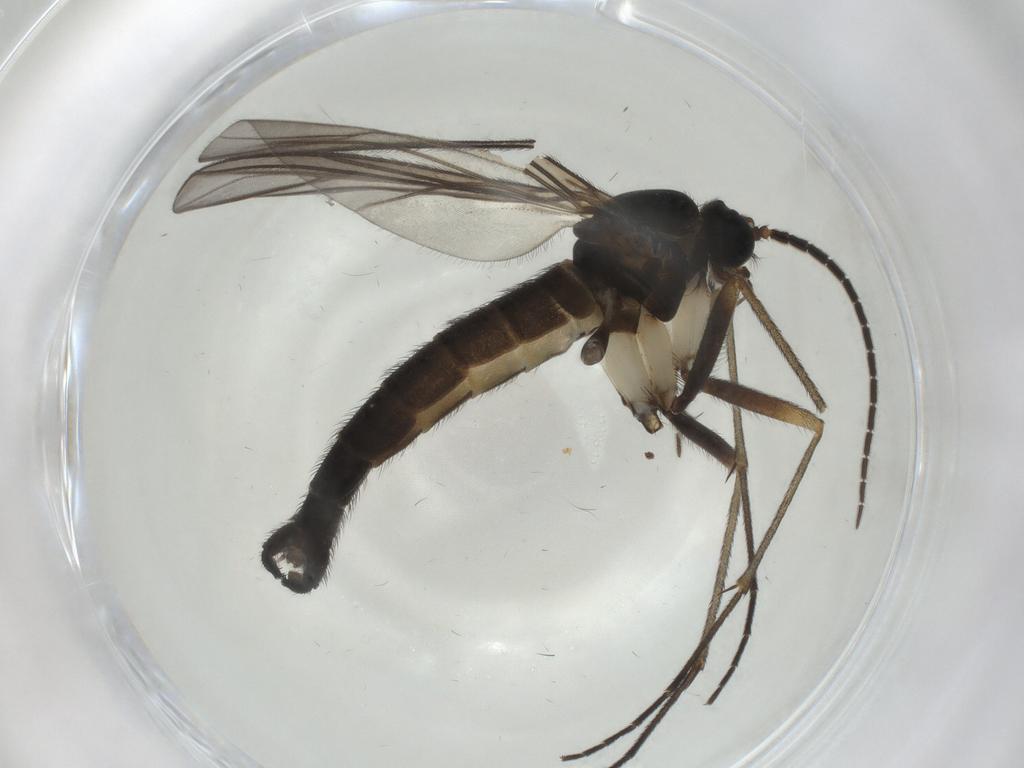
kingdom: Animalia
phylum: Arthropoda
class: Insecta
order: Diptera
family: Sciaridae
